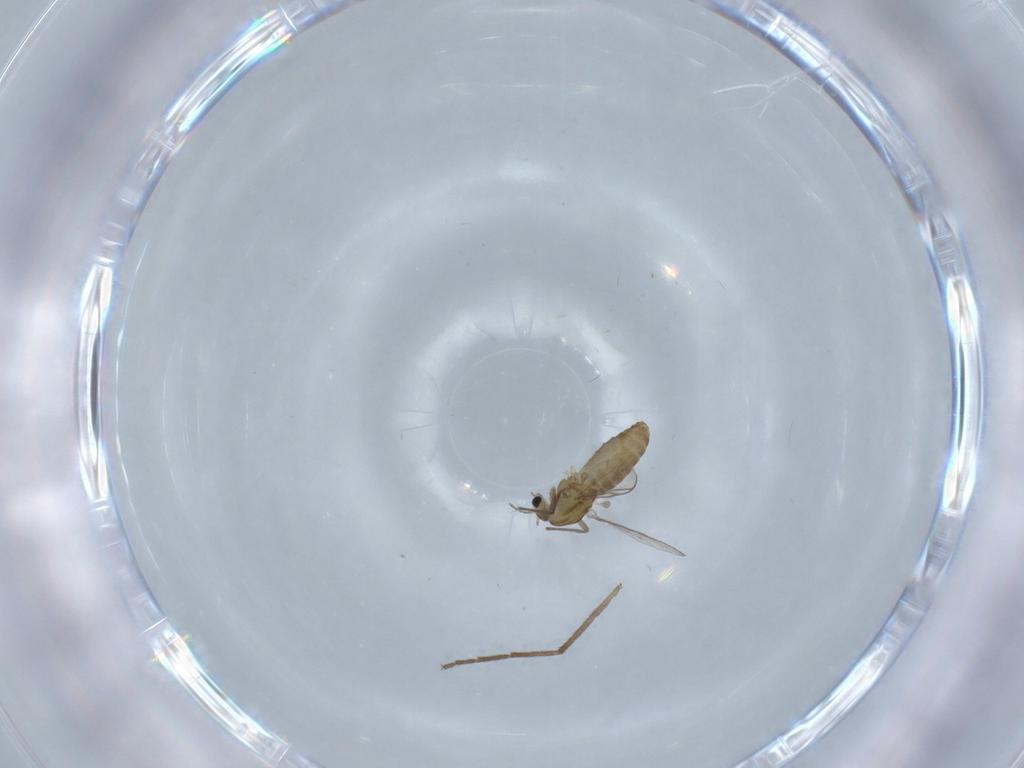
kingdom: Animalia
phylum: Arthropoda
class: Insecta
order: Diptera
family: Chironomidae
